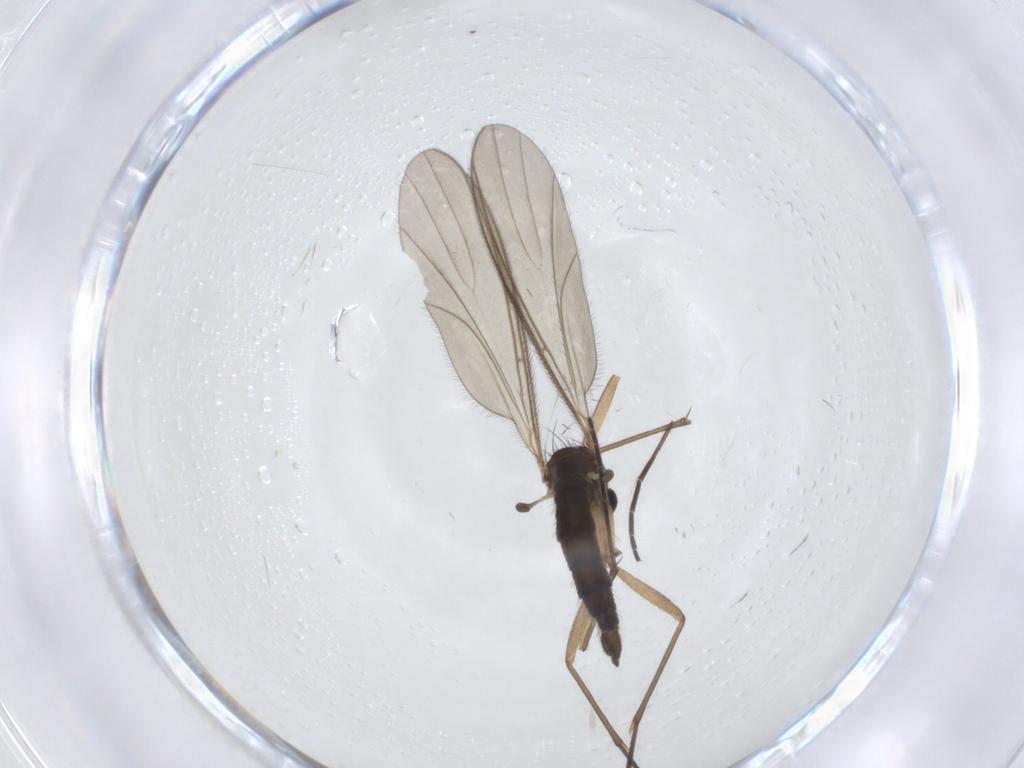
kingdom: Animalia
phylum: Arthropoda
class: Insecta
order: Diptera
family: Sciaridae
